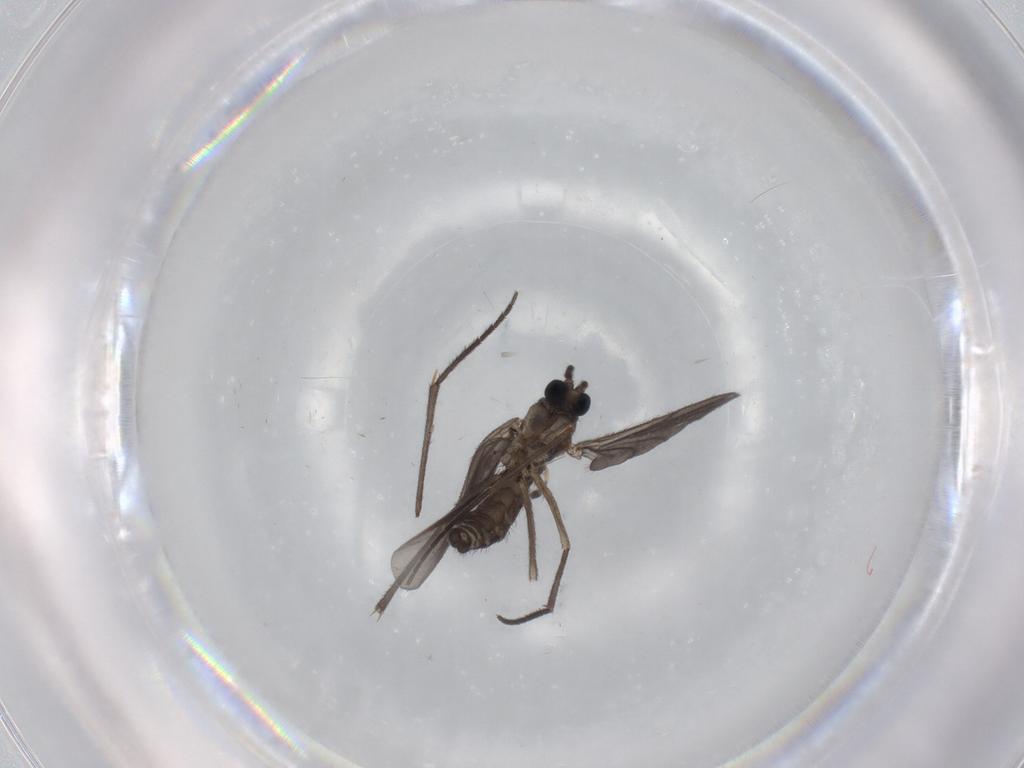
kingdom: Animalia
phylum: Arthropoda
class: Insecta
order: Diptera
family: Sciaridae
